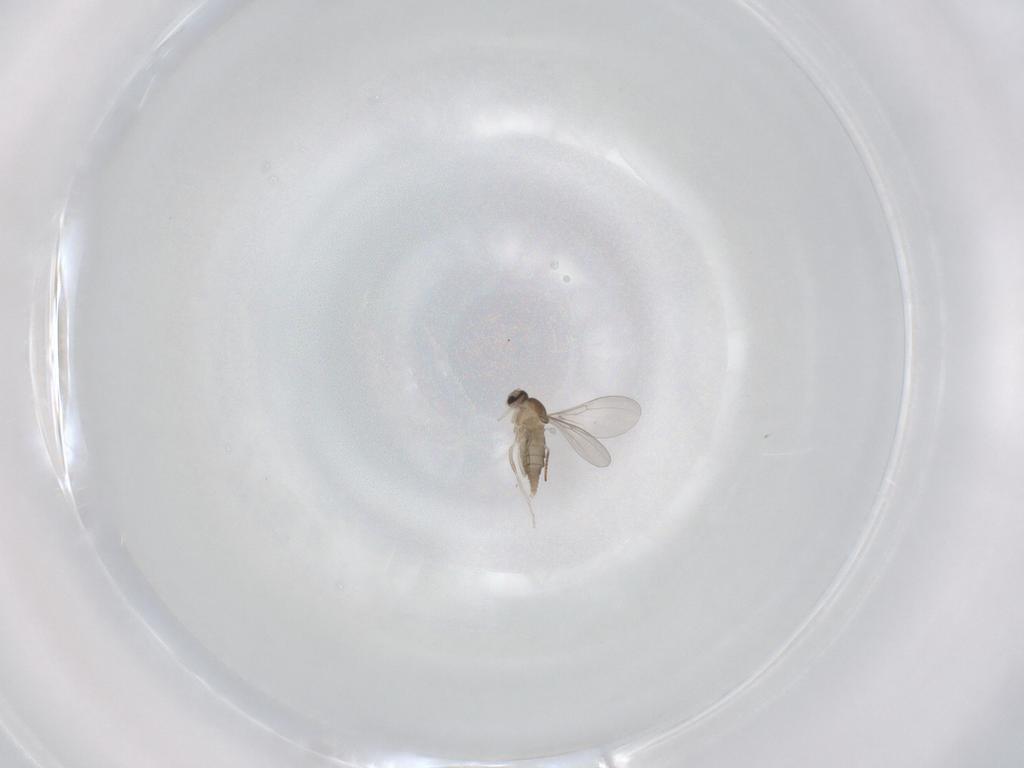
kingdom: Animalia
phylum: Arthropoda
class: Insecta
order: Diptera
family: Cecidomyiidae
